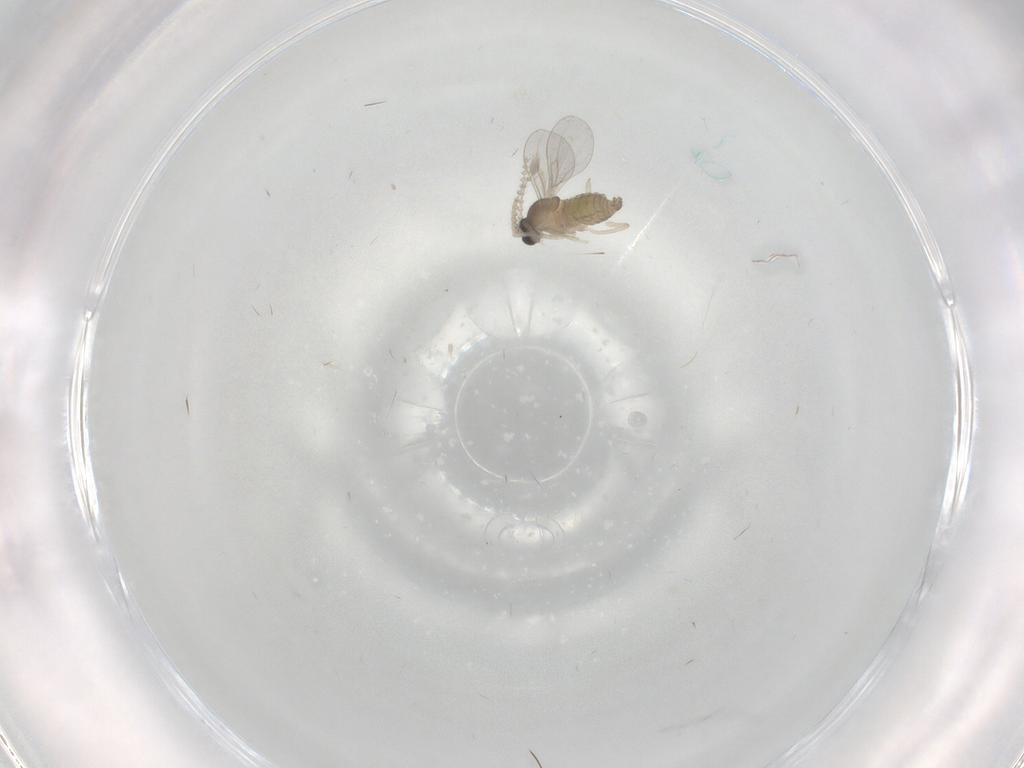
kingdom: Animalia
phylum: Arthropoda
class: Insecta
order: Diptera
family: Cecidomyiidae
